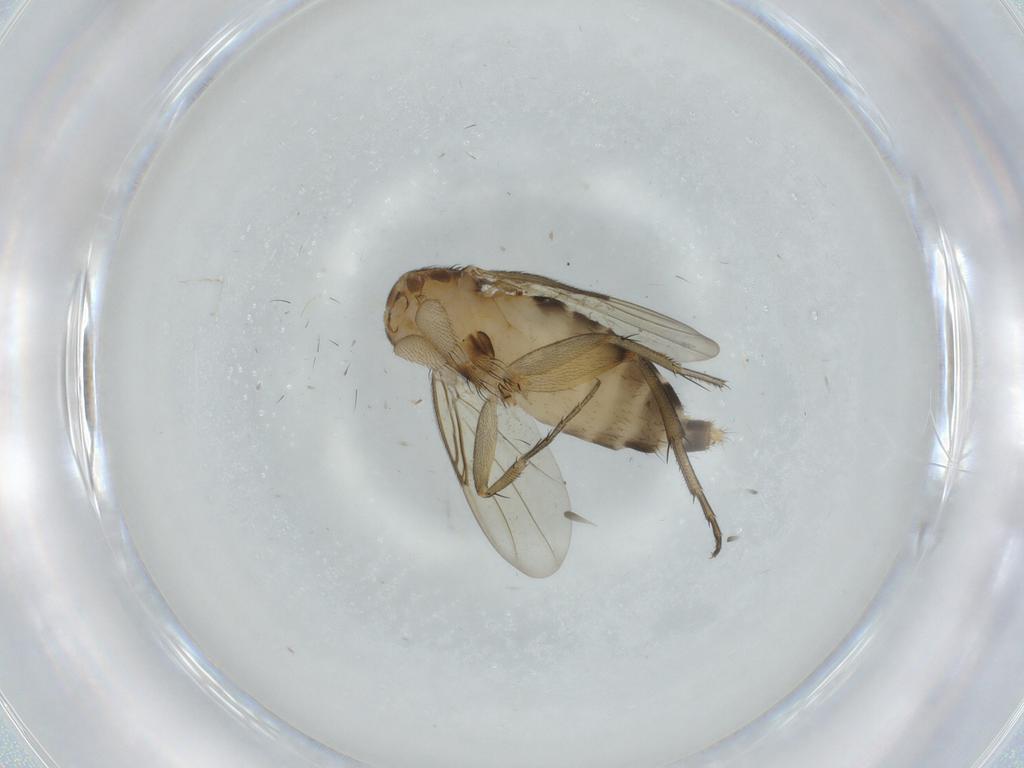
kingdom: Animalia
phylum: Arthropoda
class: Insecta
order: Diptera
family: Phoridae
